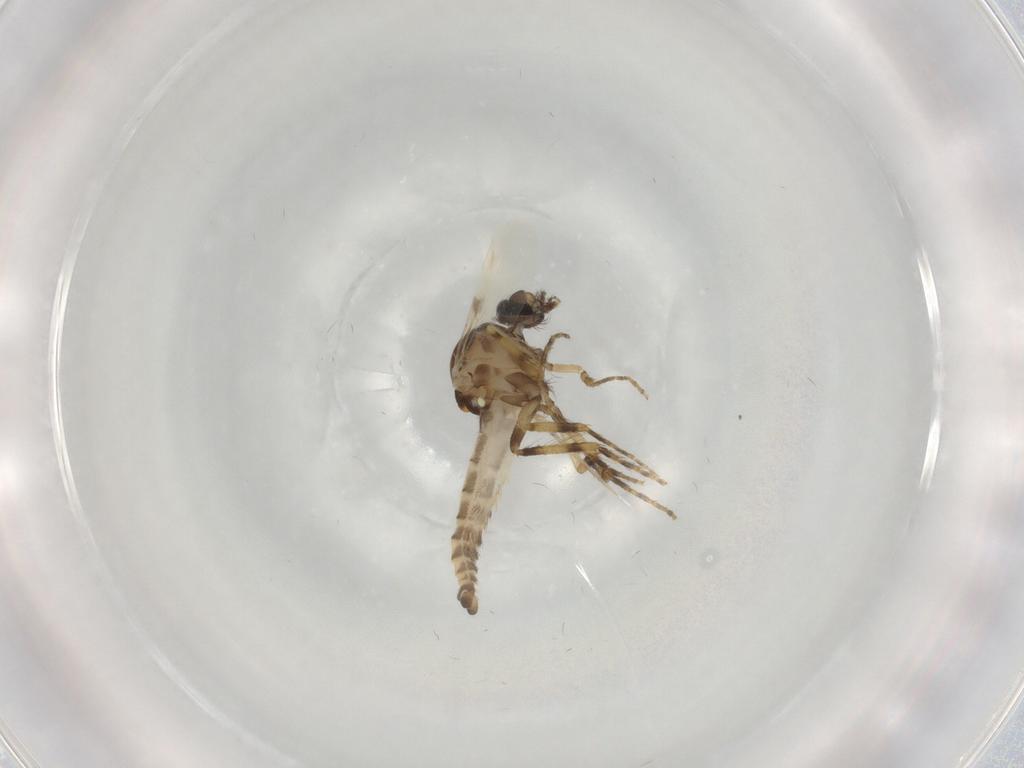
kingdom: Animalia
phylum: Arthropoda
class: Insecta
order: Diptera
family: Ceratopogonidae
